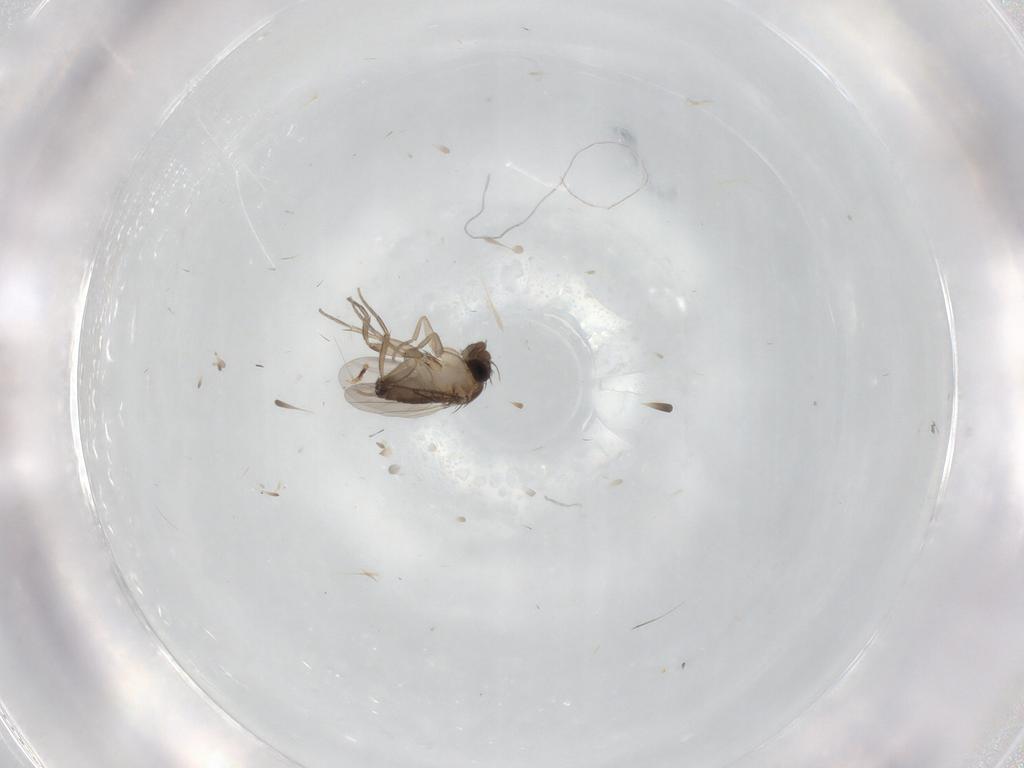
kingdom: Animalia
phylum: Arthropoda
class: Insecta
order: Diptera
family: Phoridae
